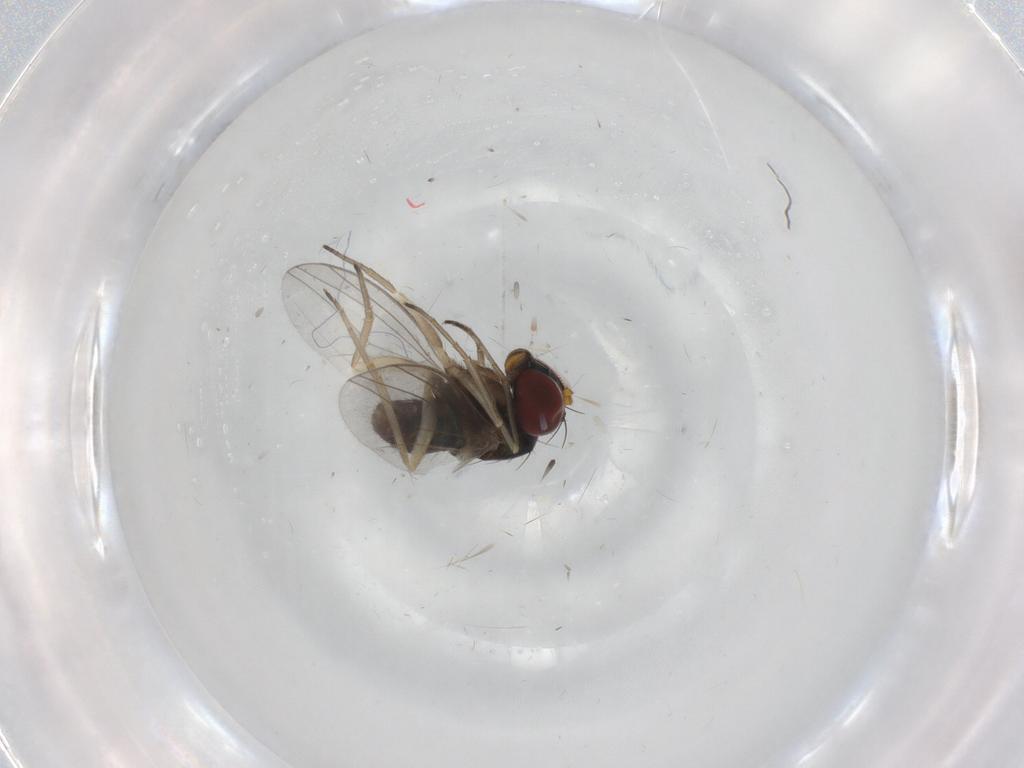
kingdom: Animalia
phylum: Arthropoda
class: Insecta
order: Diptera
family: Dolichopodidae
